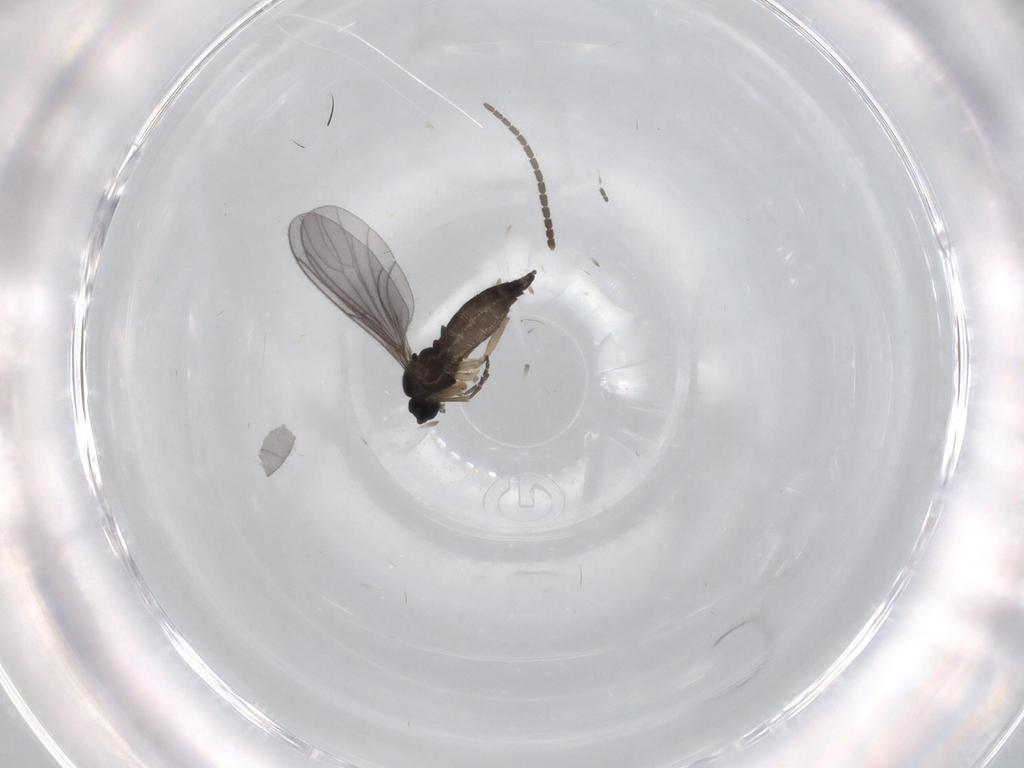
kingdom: Animalia
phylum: Arthropoda
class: Insecta
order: Diptera
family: Sciaridae
